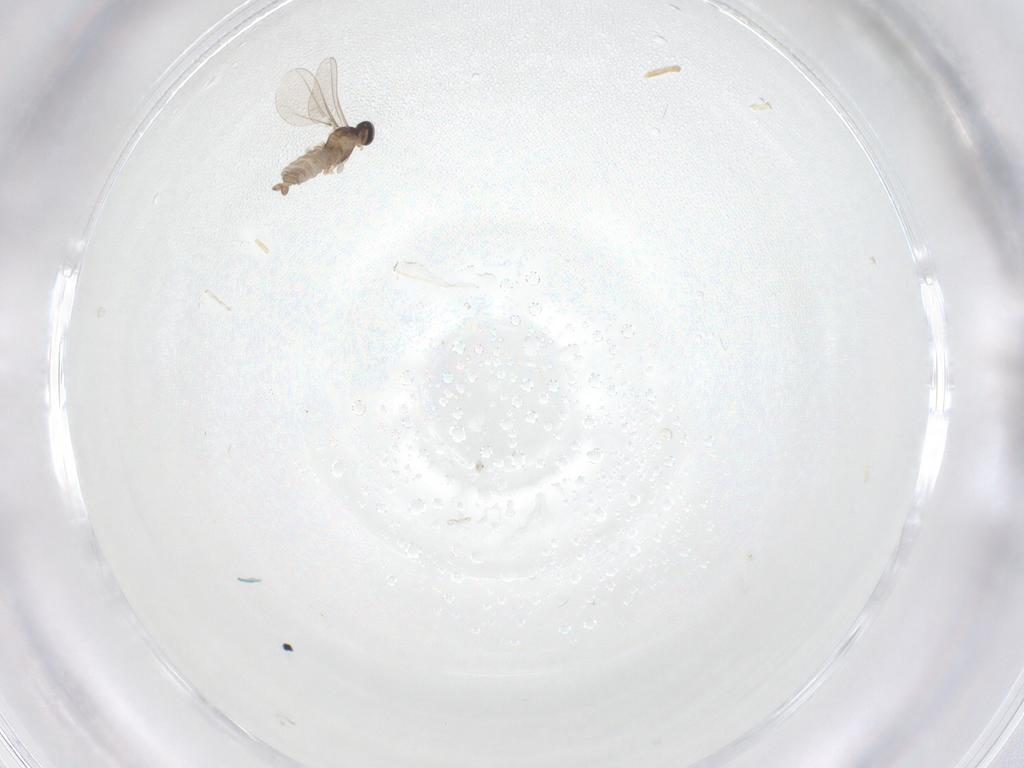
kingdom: Animalia
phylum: Arthropoda
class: Insecta
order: Diptera
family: Cecidomyiidae
